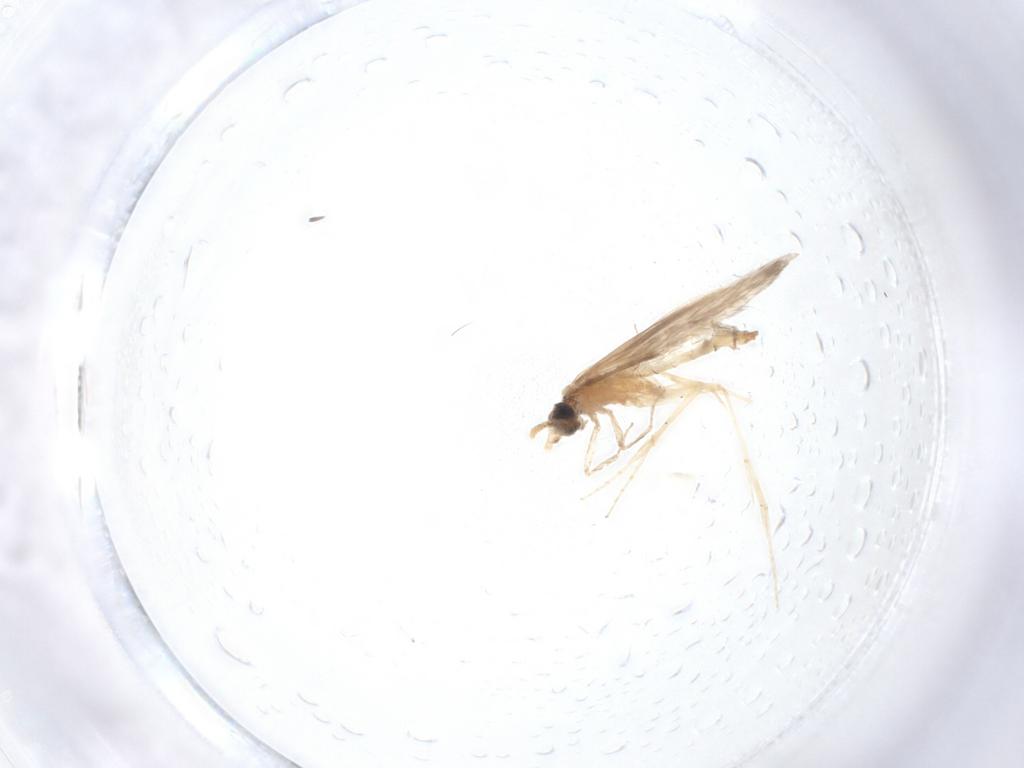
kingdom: Animalia
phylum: Arthropoda
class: Insecta
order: Trichoptera
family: Hydroptilidae
